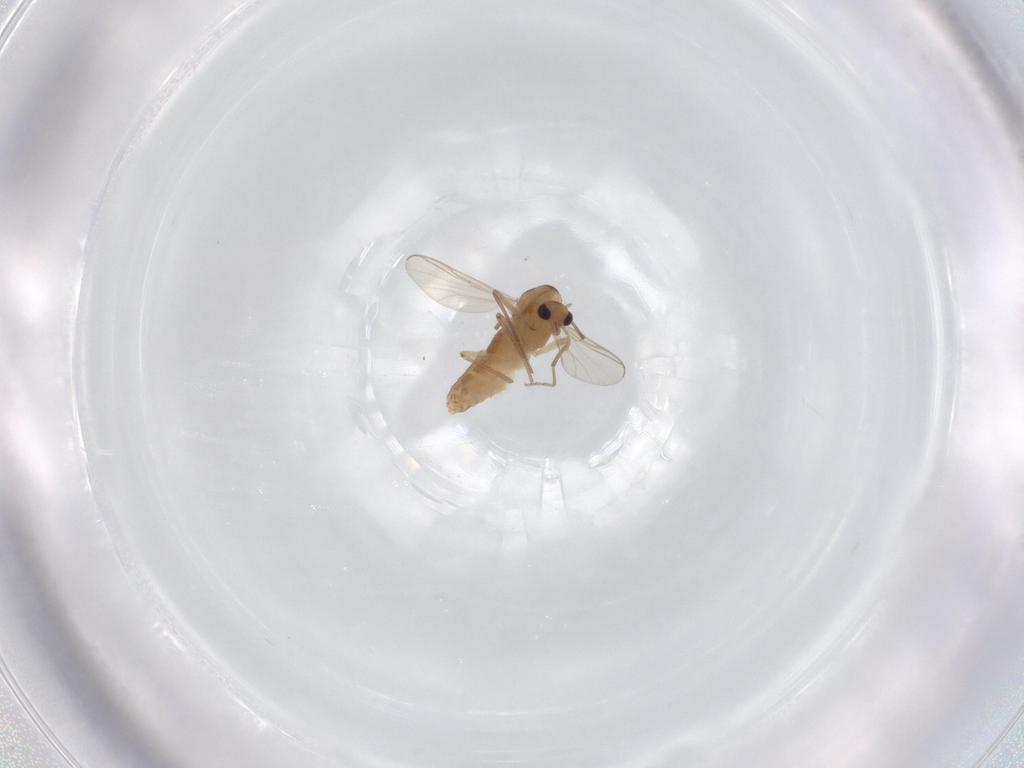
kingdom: Animalia
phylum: Arthropoda
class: Insecta
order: Diptera
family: Chironomidae
